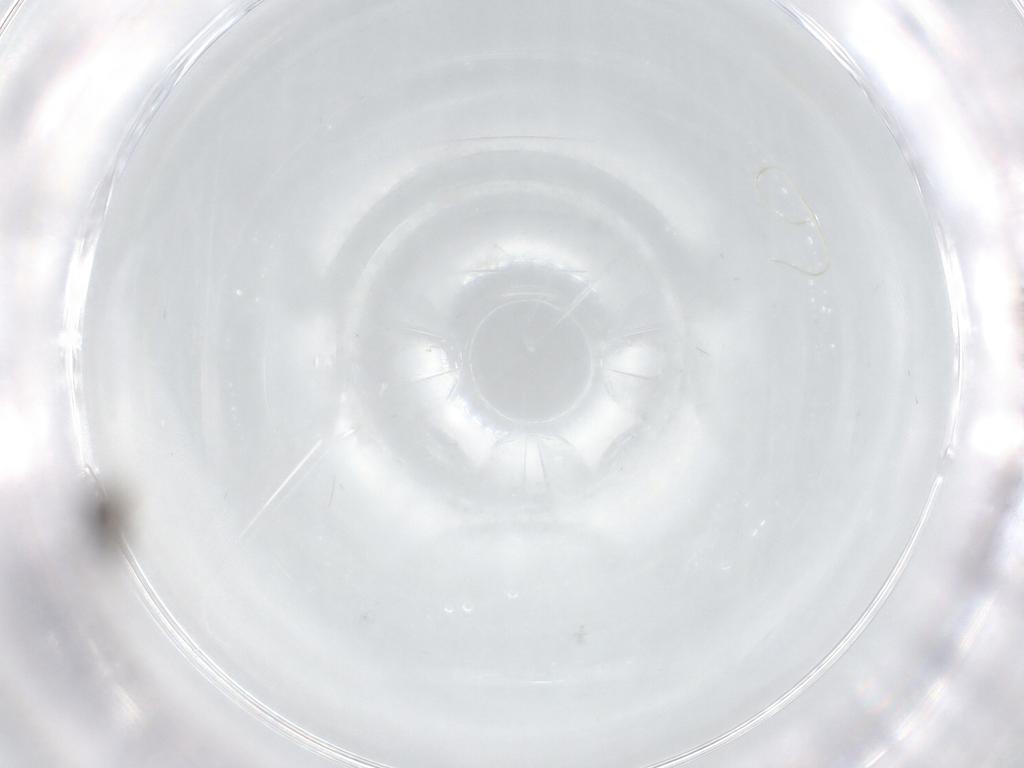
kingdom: Animalia
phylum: Arthropoda
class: Insecta
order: Diptera
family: Sciaridae
